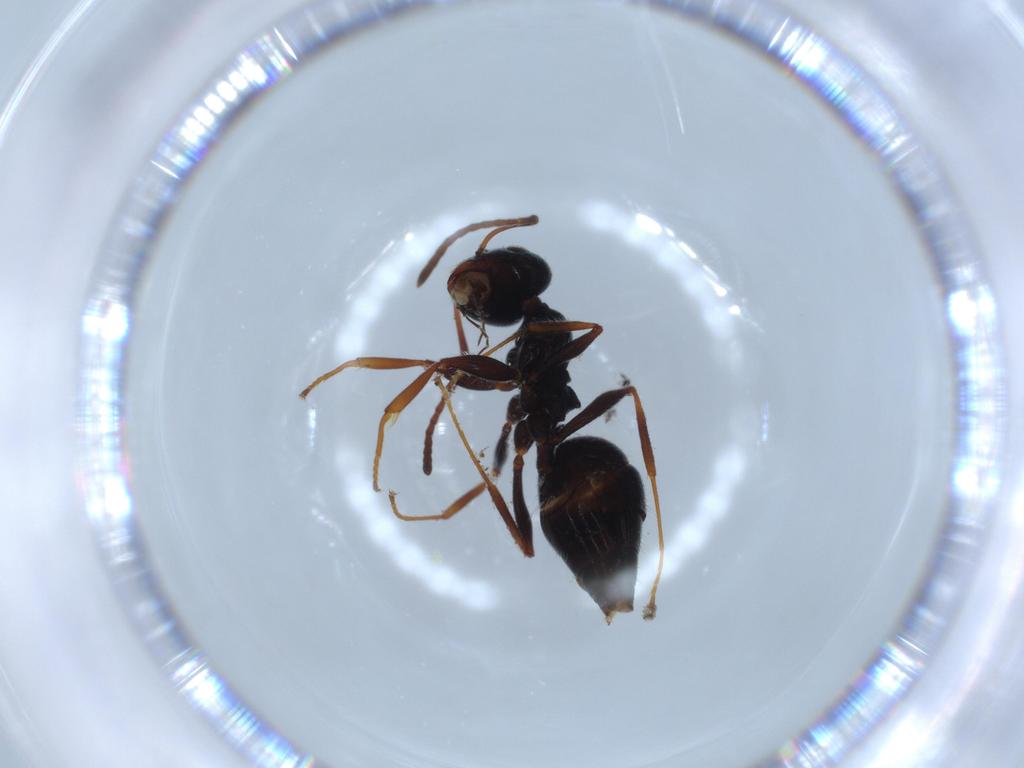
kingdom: Animalia
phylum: Arthropoda
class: Insecta
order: Hymenoptera
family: Formicidae
